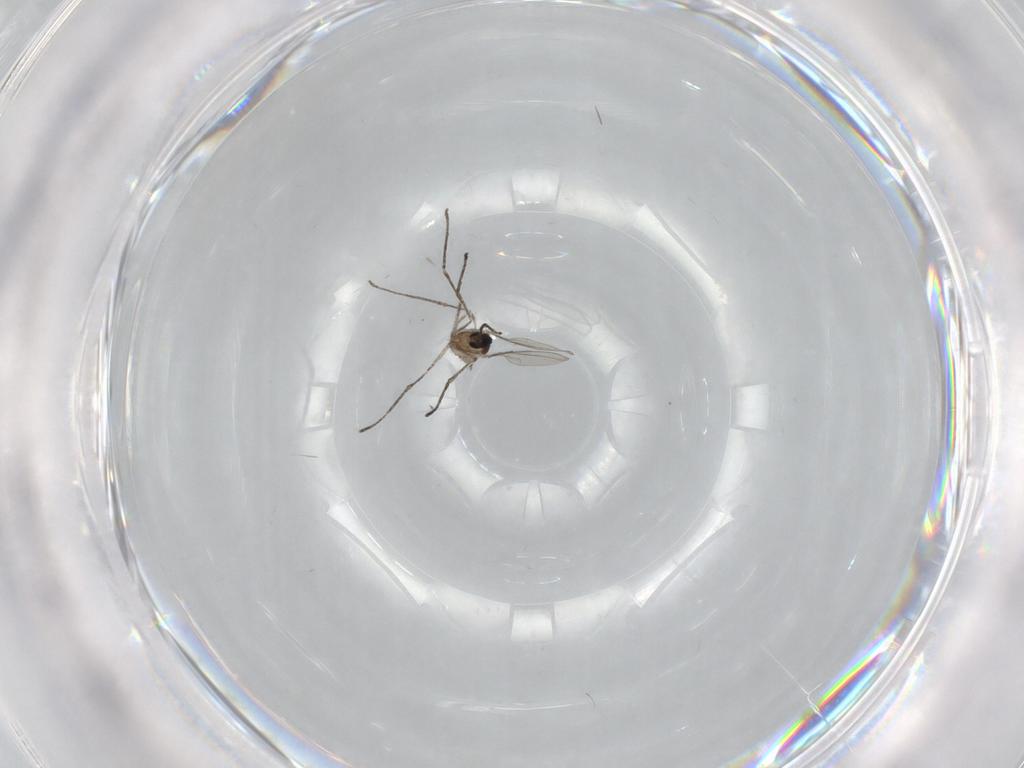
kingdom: Animalia
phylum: Arthropoda
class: Insecta
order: Diptera
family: Cecidomyiidae
